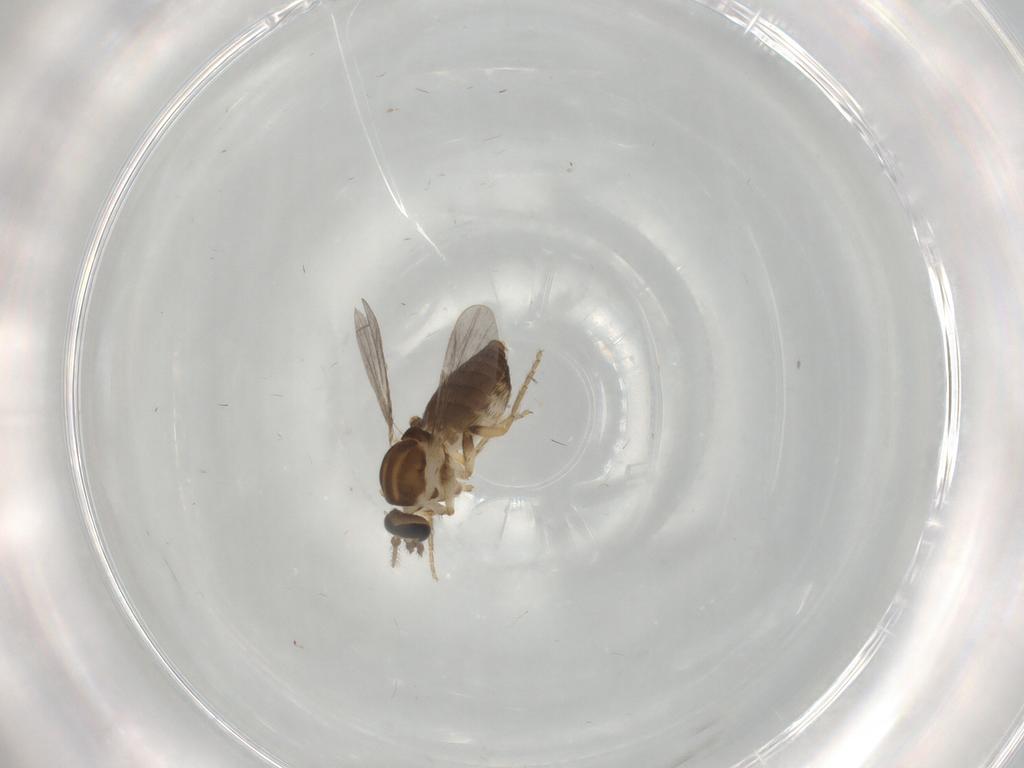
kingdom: Animalia
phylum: Arthropoda
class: Insecta
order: Diptera
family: Ceratopogonidae
